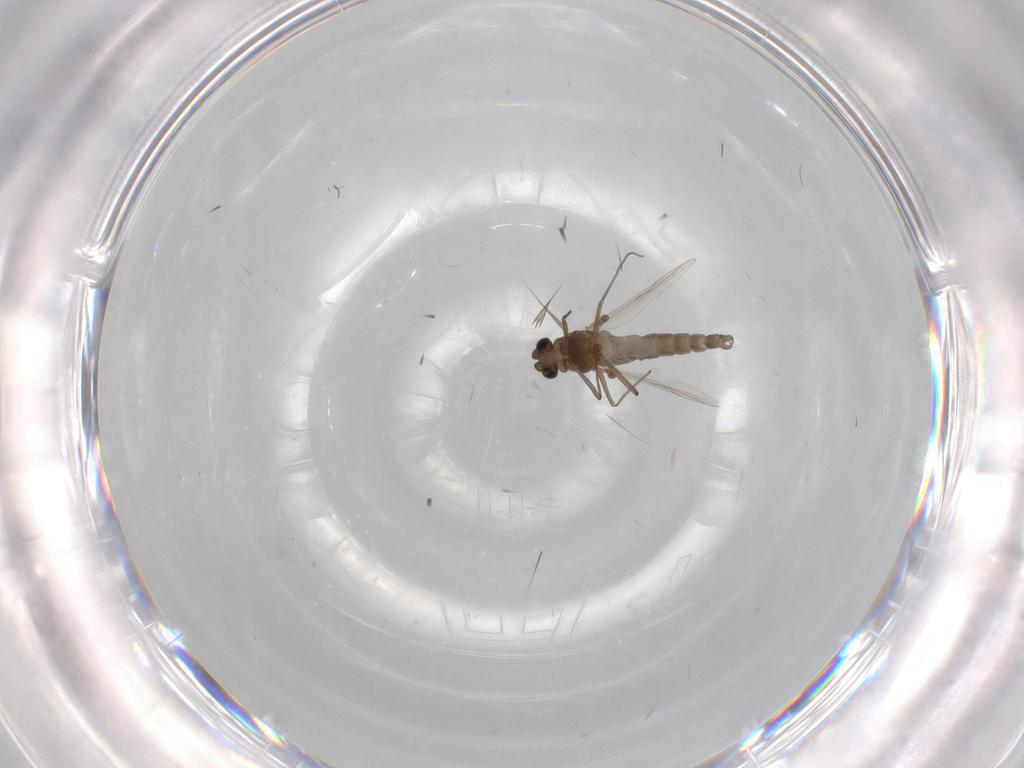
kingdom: Animalia
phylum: Arthropoda
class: Insecta
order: Diptera
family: Chironomidae
